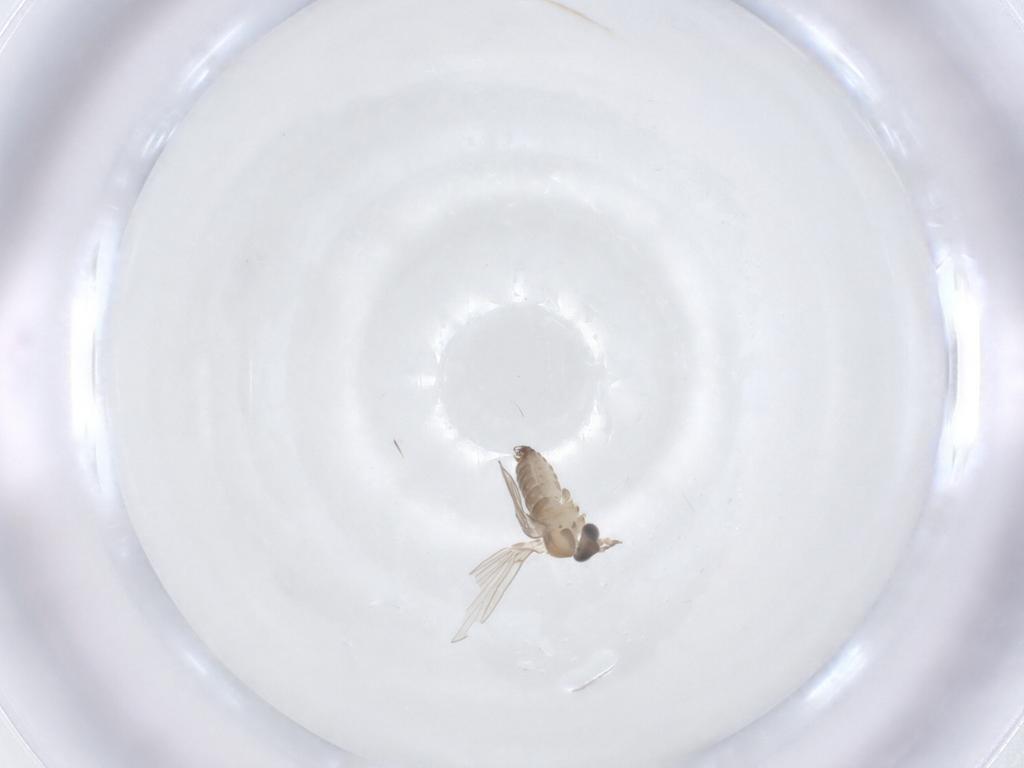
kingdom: Animalia
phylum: Arthropoda
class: Insecta
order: Diptera
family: Psychodidae
